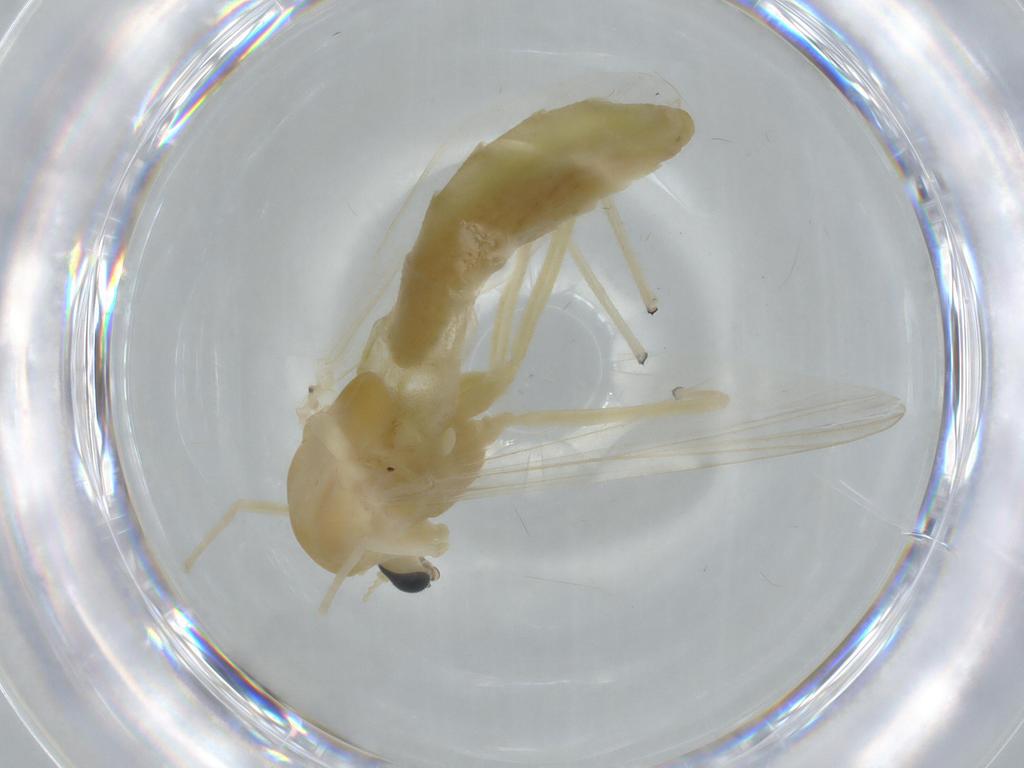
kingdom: Animalia
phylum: Arthropoda
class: Insecta
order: Diptera
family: Chironomidae
